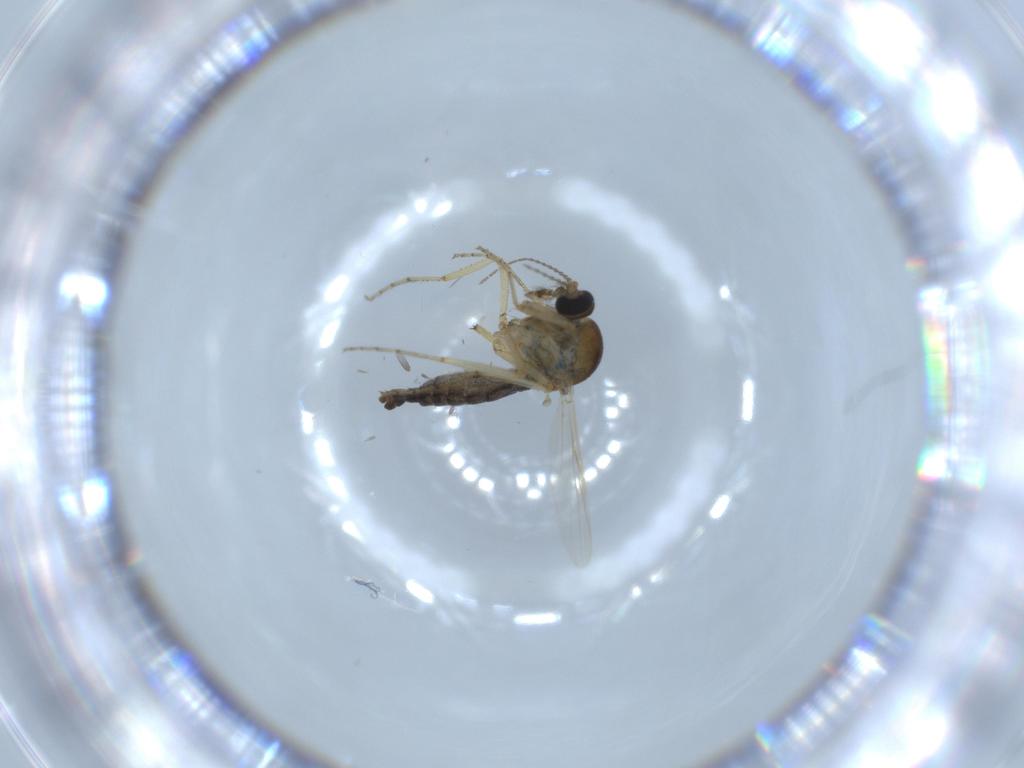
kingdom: Animalia
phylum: Arthropoda
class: Insecta
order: Diptera
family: Ceratopogonidae
